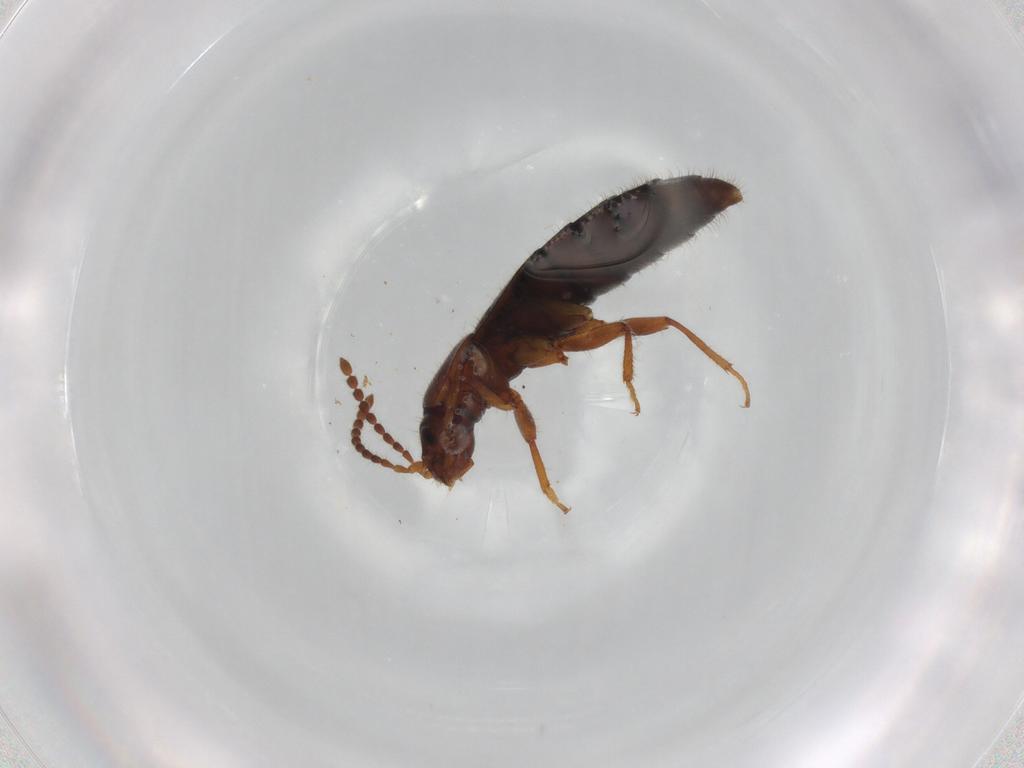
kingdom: Animalia
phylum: Arthropoda
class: Insecta
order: Coleoptera
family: Staphylinidae
